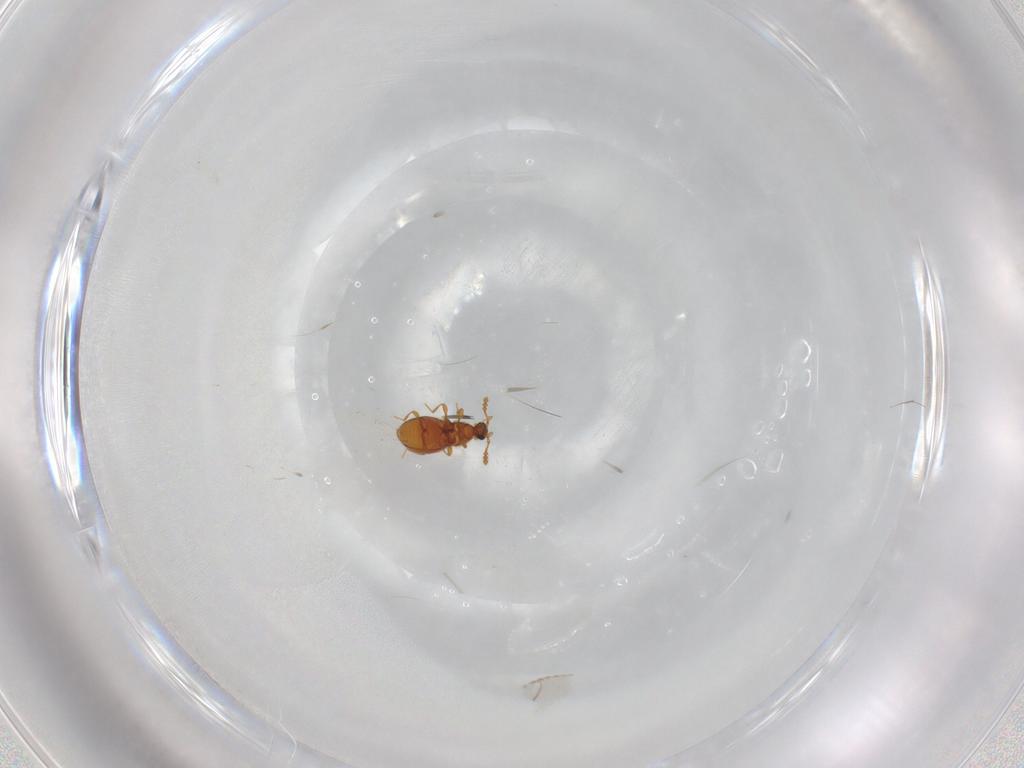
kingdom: Animalia
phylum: Arthropoda
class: Insecta
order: Coleoptera
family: Staphylinidae
